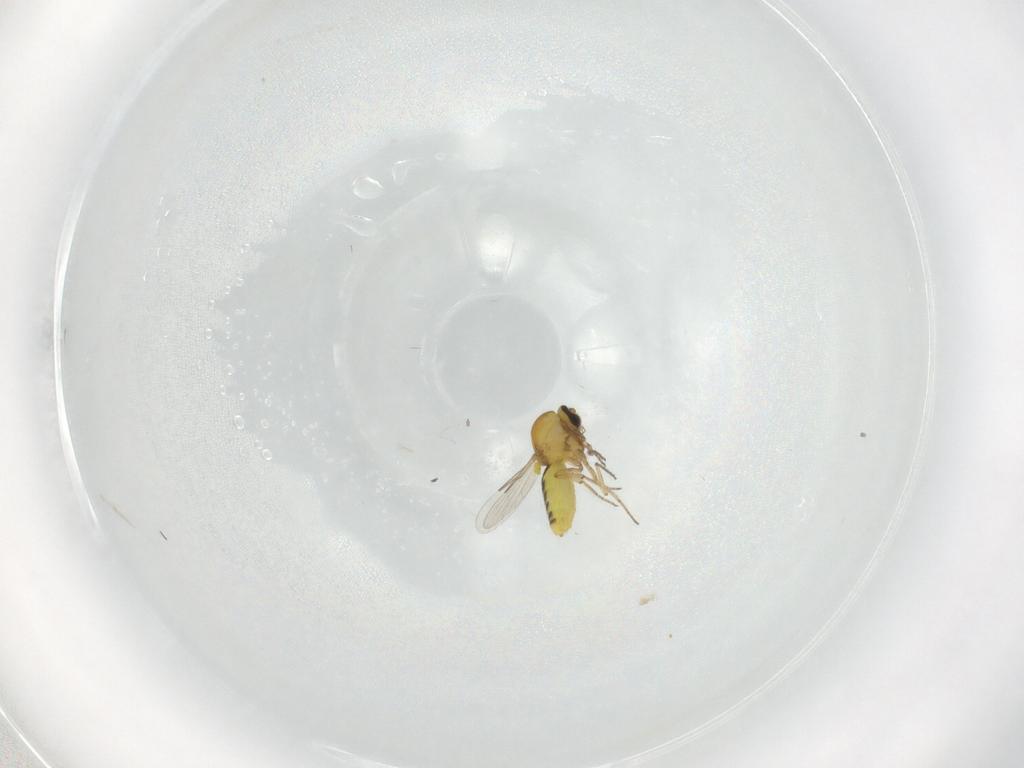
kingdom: Animalia
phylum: Arthropoda
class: Insecta
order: Diptera
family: Ceratopogonidae
